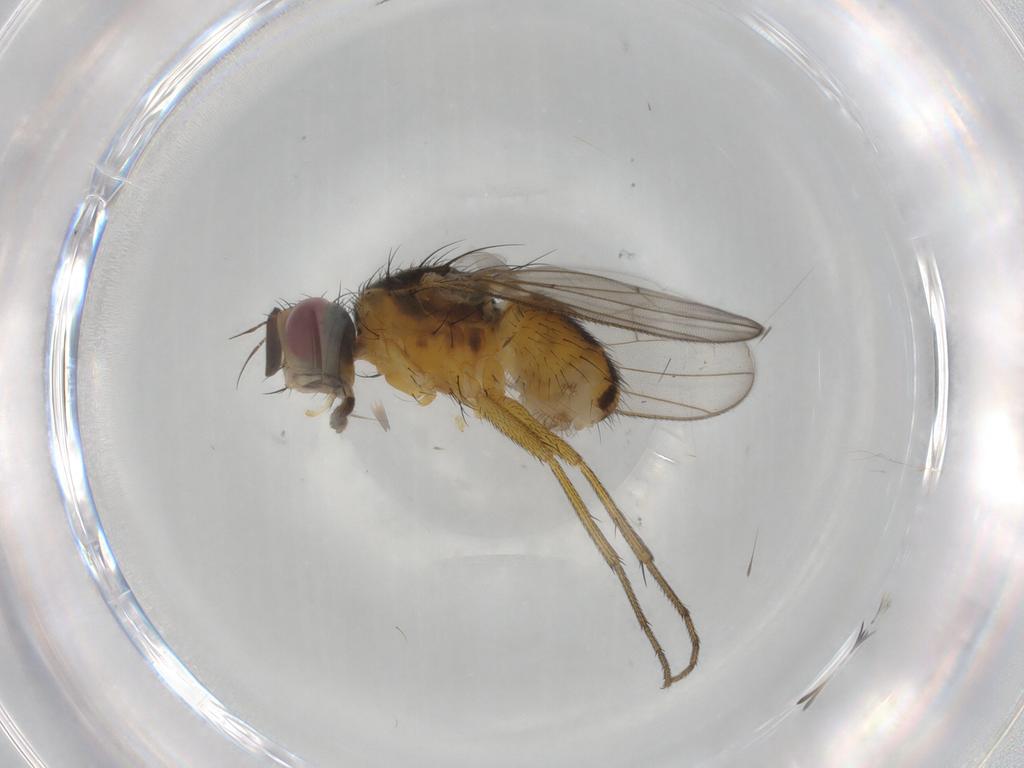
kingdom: Animalia
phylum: Arthropoda
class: Insecta
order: Diptera
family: Muscidae
